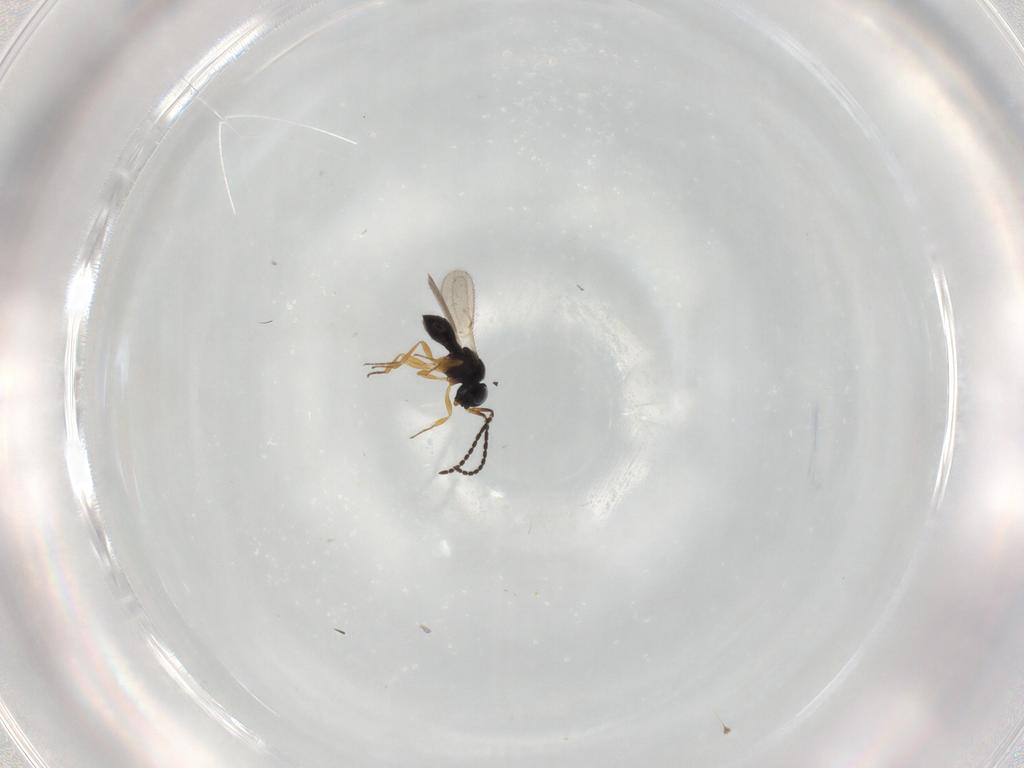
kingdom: Animalia
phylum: Arthropoda
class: Insecta
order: Hymenoptera
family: Scelionidae
